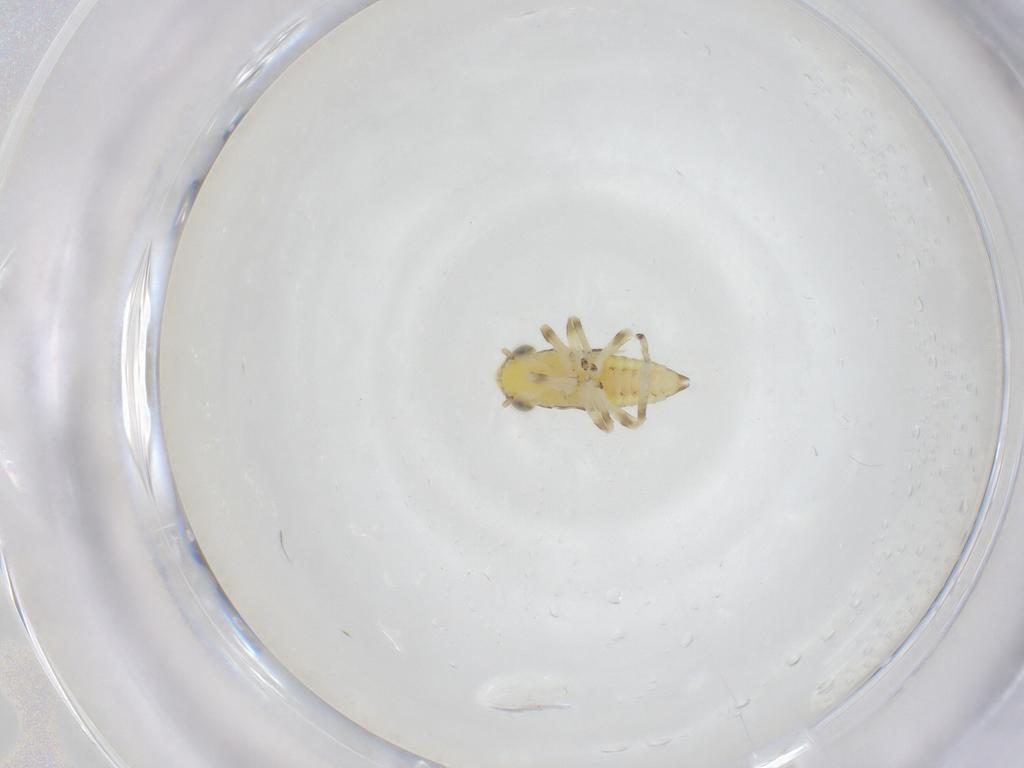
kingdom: Animalia
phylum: Arthropoda
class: Insecta
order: Hemiptera
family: Cicadellidae
